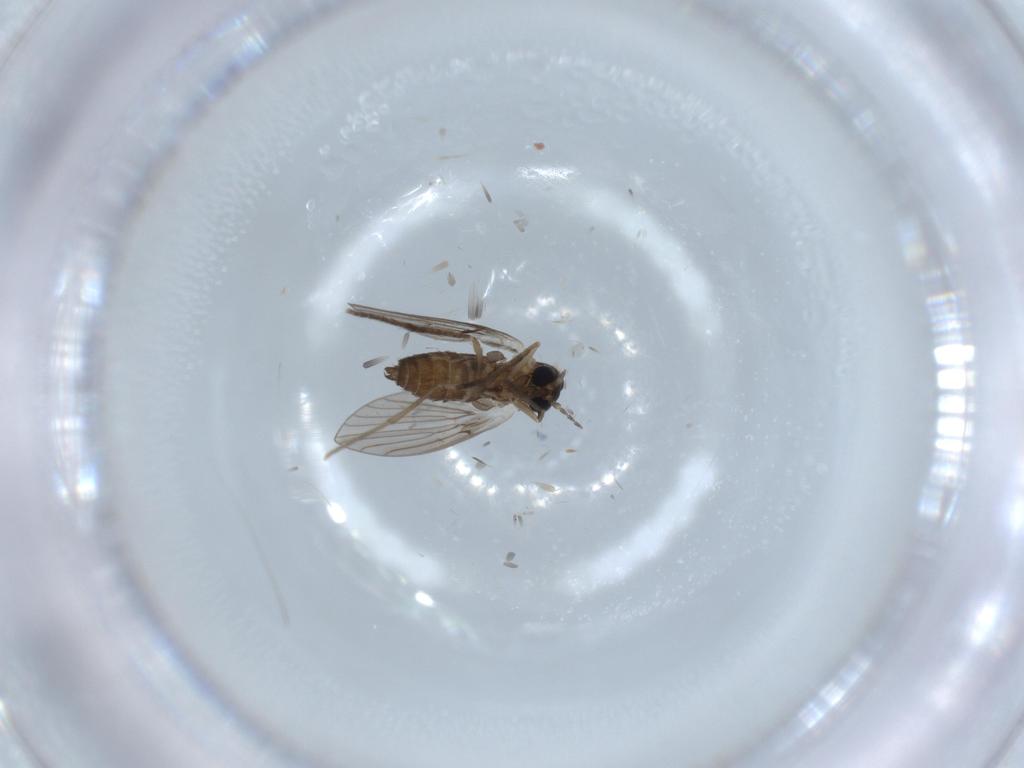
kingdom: Animalia
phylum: Arthropoda
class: Insecta
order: Diptera
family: Psychodidae
